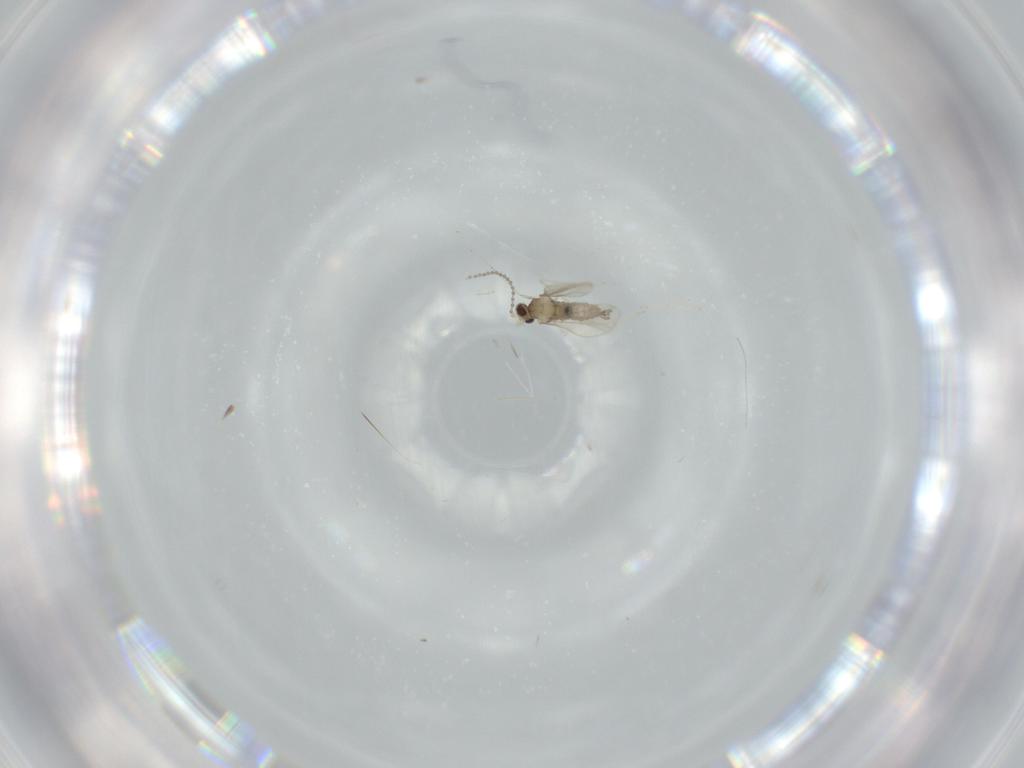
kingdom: Animalia
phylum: Arthropoda
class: Insecta
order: Diptera
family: Cecidomyiidae
